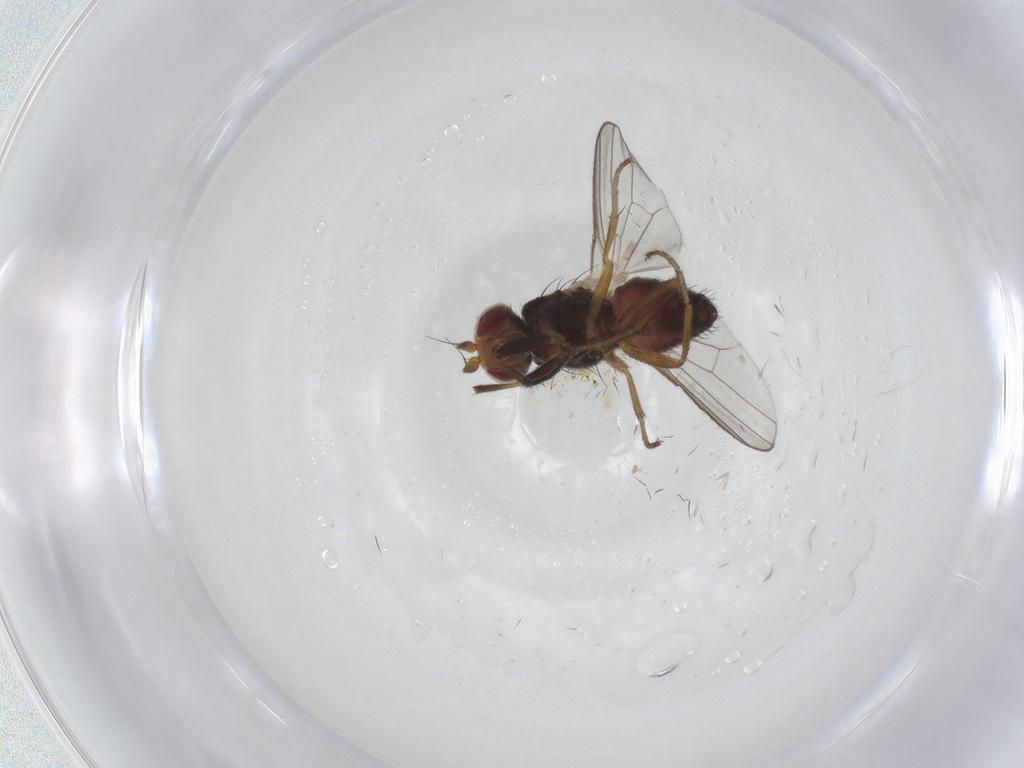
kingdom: Animalia
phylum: Arthropoda
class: Insecta
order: Diptera
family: Heleomyzidae
